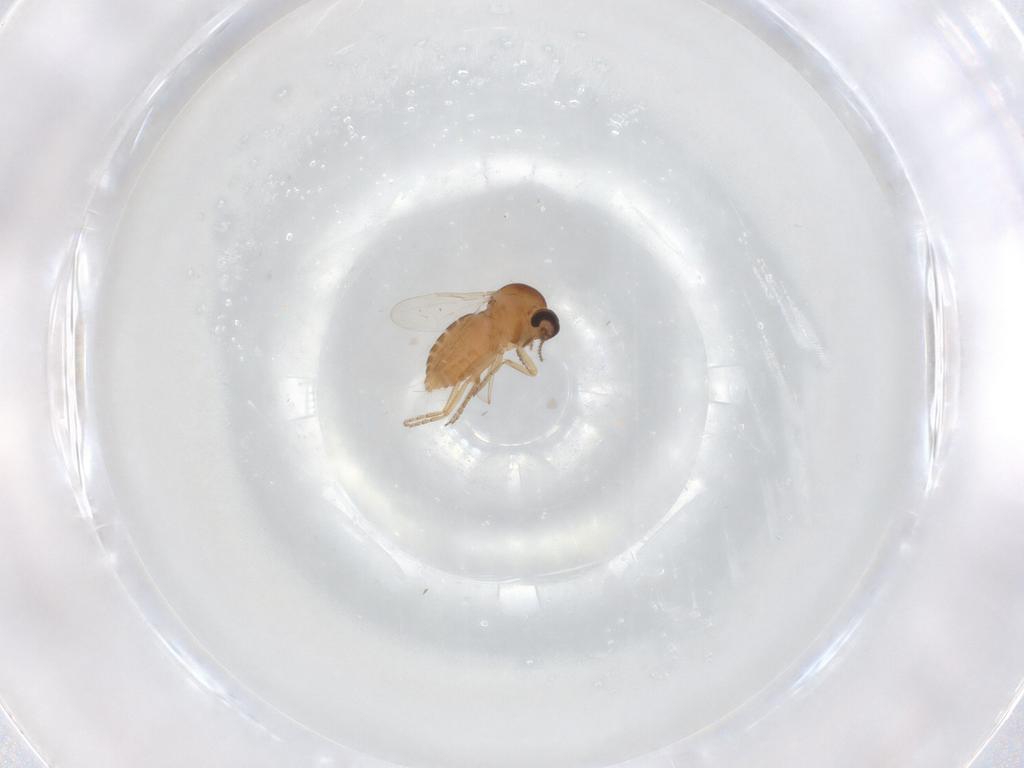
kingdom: Animalia
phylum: Arthropoda
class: Insecta
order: Diptera
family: Ceratopogonidae
